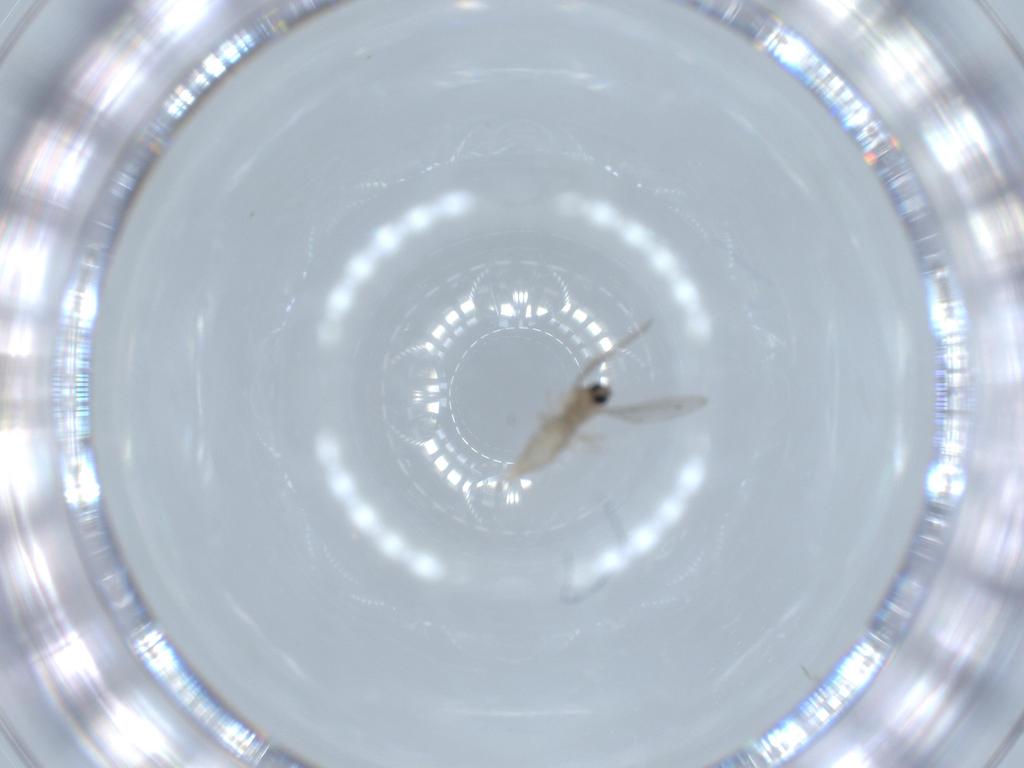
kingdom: Animalia
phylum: Arthropoda
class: Insecta
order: Diptera
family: Cecidomyiidae
